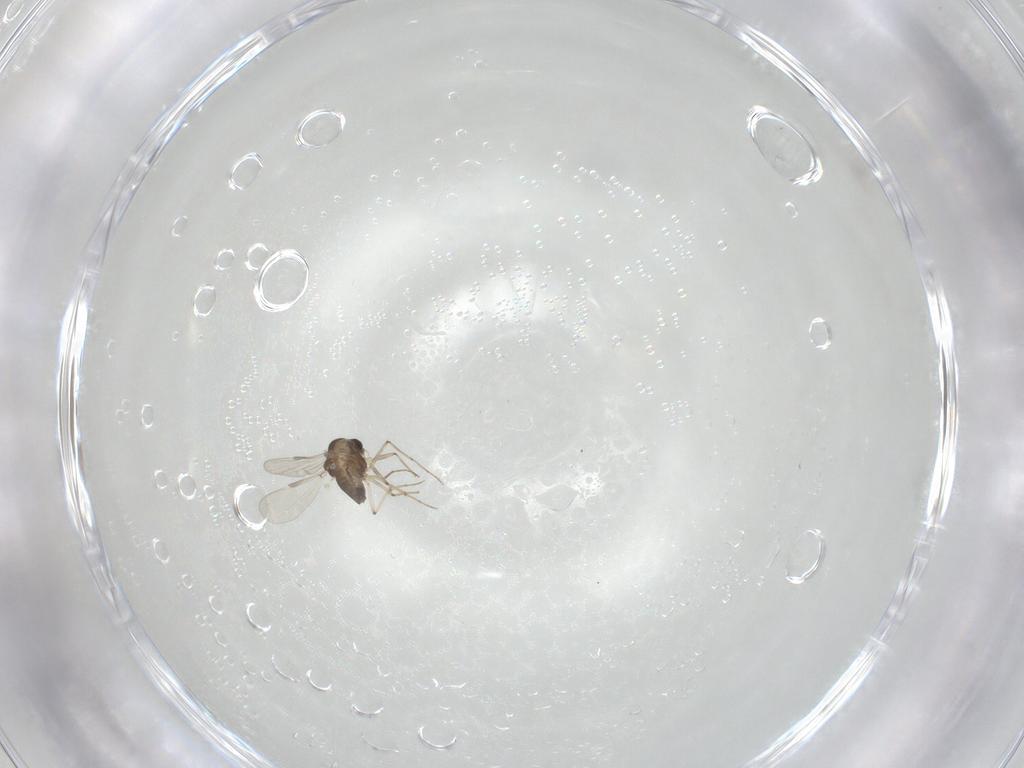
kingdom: Animalia
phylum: Arthropoda
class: Insecta
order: Diptera
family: Chironomidae
